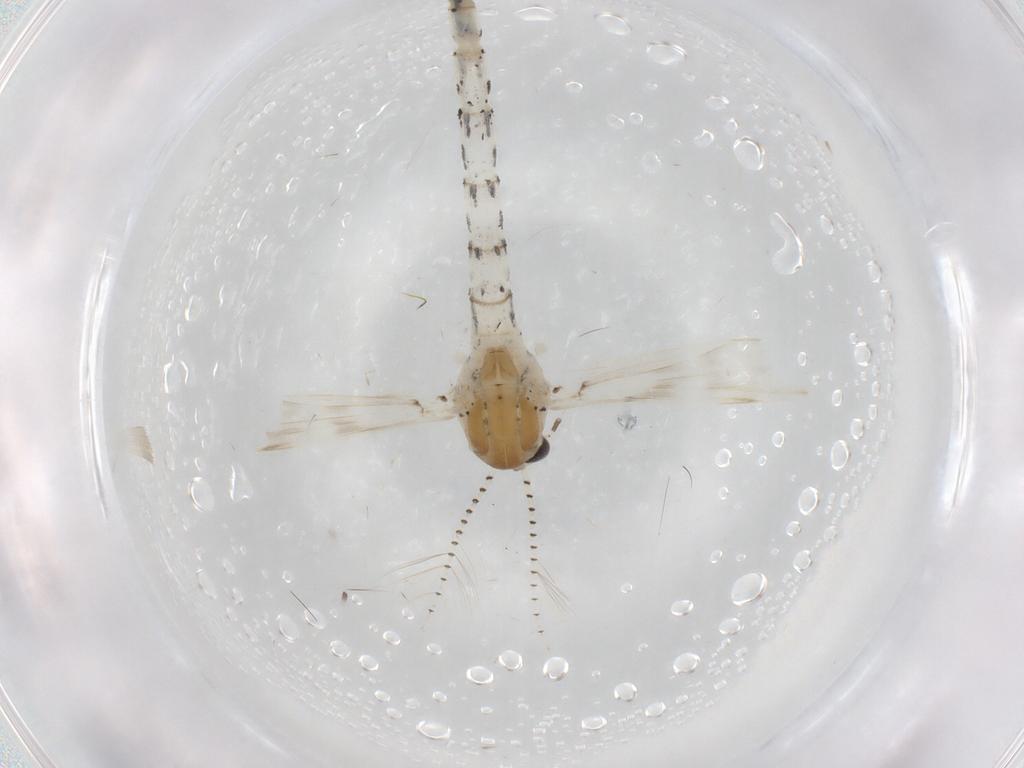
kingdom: Animalia
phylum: Arthropoda
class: Insecta
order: Diptera
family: Chaoboridae
